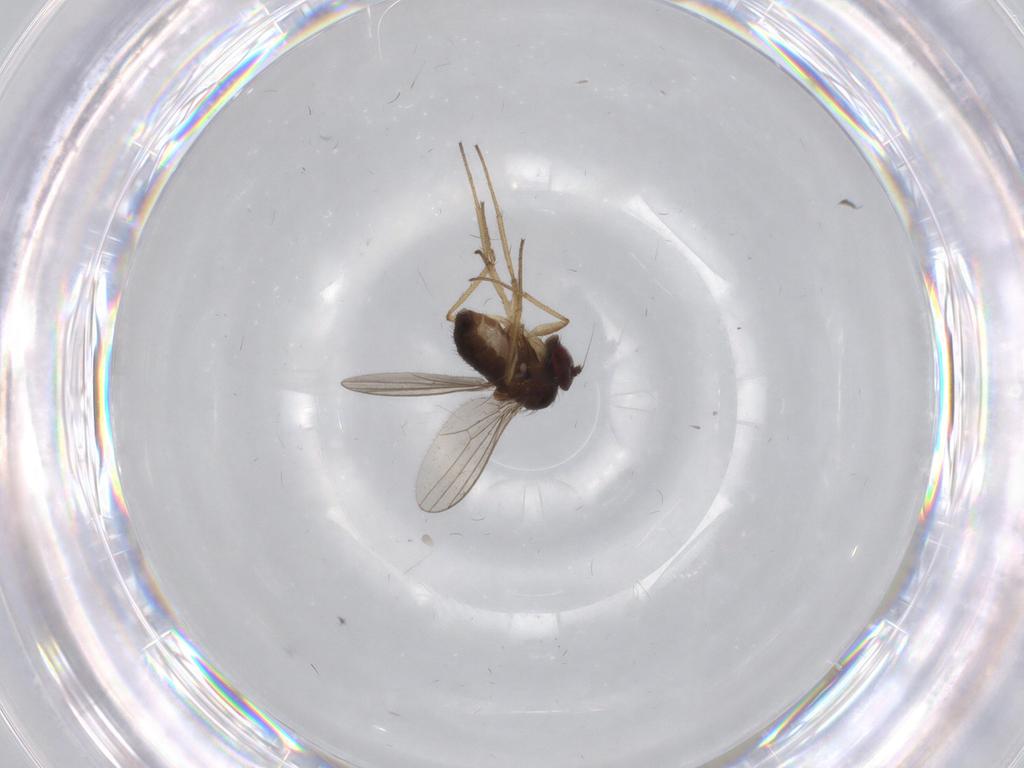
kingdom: Animalia
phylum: Arthropoda
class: Insecta
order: Diptera
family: Dolichopodidae
